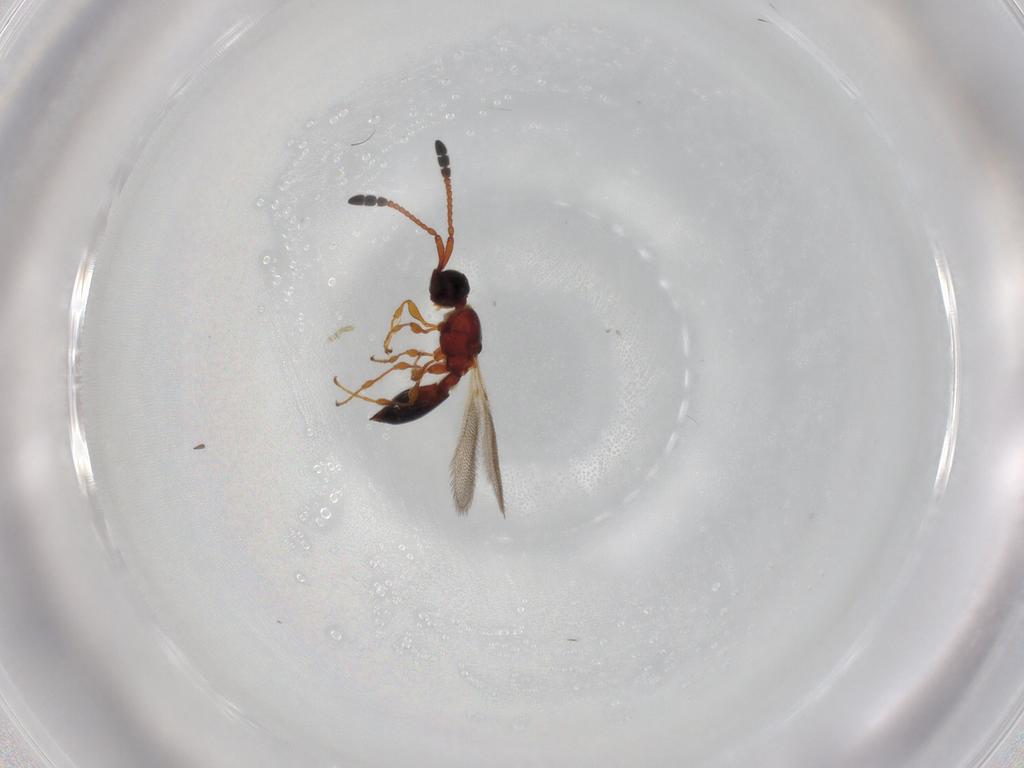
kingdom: Animalia
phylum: Arthropoda
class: Insecta
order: Hymenoptera
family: Diapriidae
